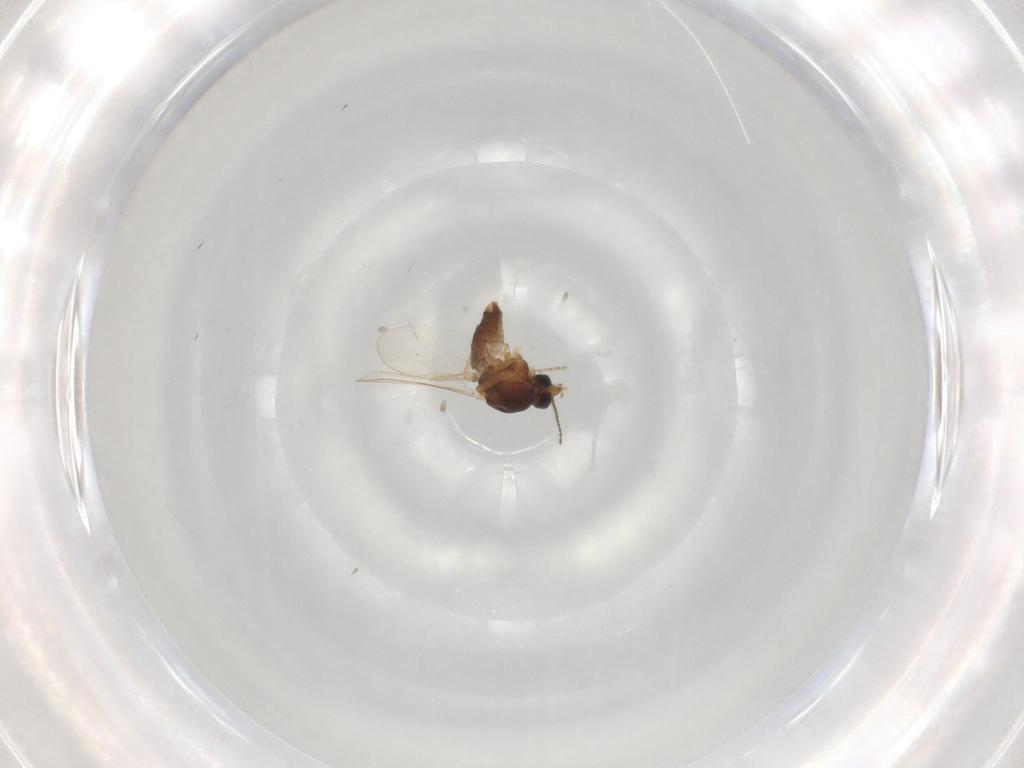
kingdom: Animalia
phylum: Arthropoda
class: Insecta
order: Diptera
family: Ceratopogonidae
